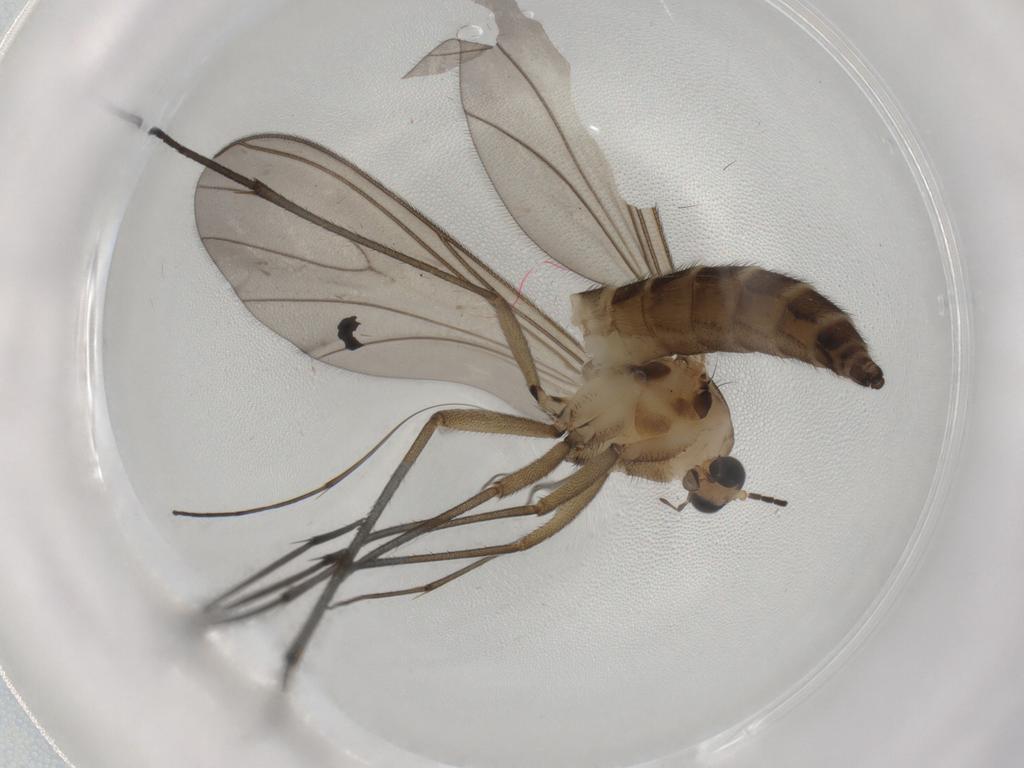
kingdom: Animalia
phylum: Arthropoda
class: Insecta
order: Diptera
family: Sciaridae
